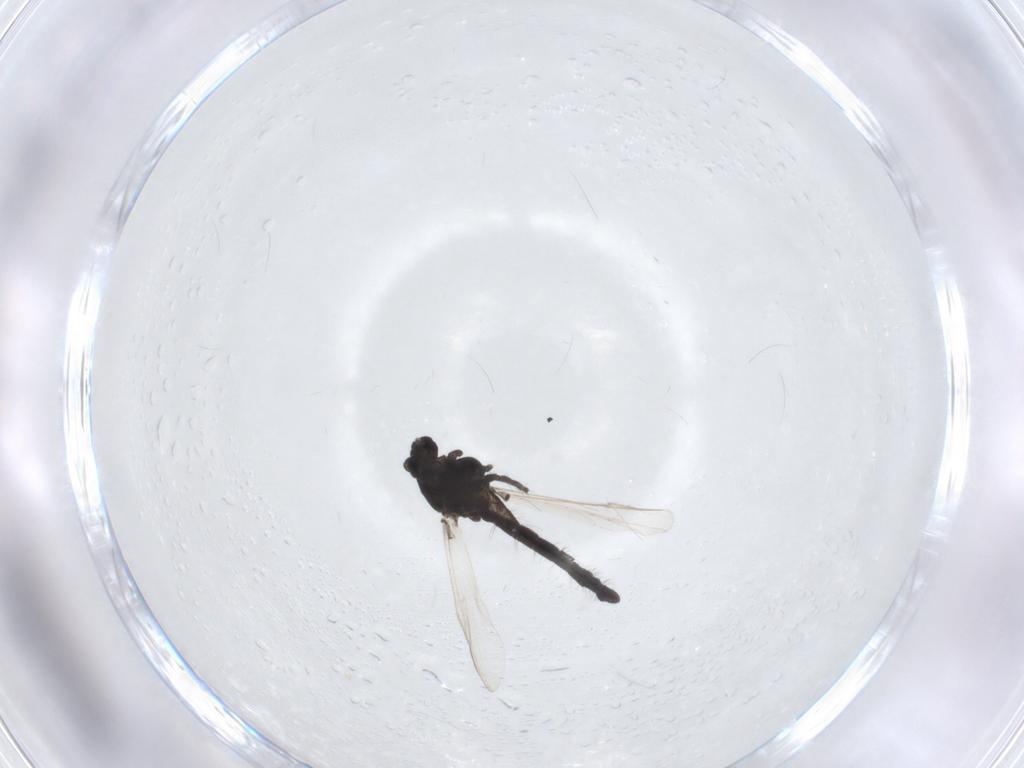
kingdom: Animalia
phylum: Arthropoda
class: Insecta
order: Diptera
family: Chironomidae
